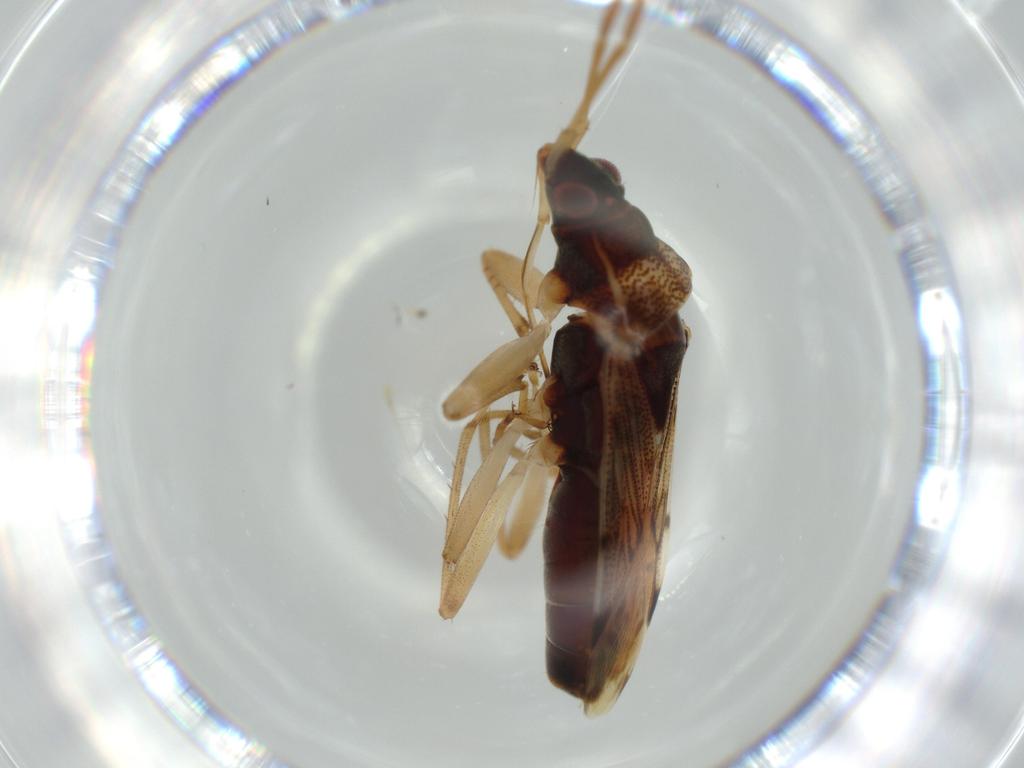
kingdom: Animalia
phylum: Arthropoda
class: Insecta
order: Hemiptera
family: Rhyparochromidae
